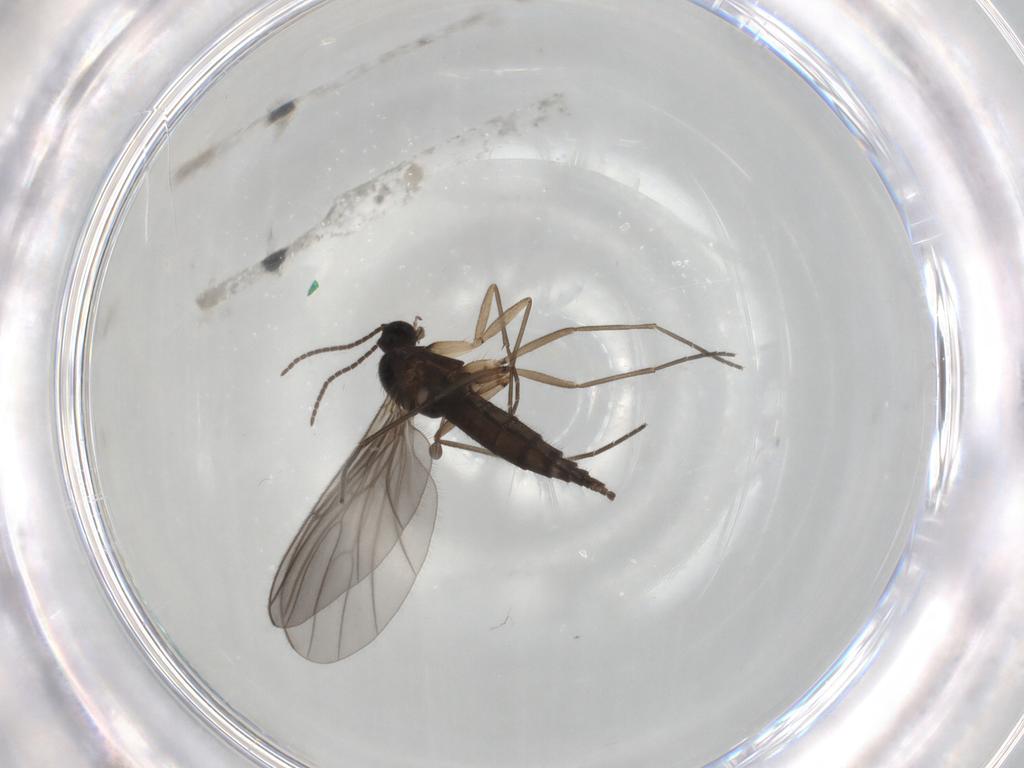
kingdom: Animalia
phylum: Arthropoda
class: Insecta
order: Diptera
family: Sciaridae
